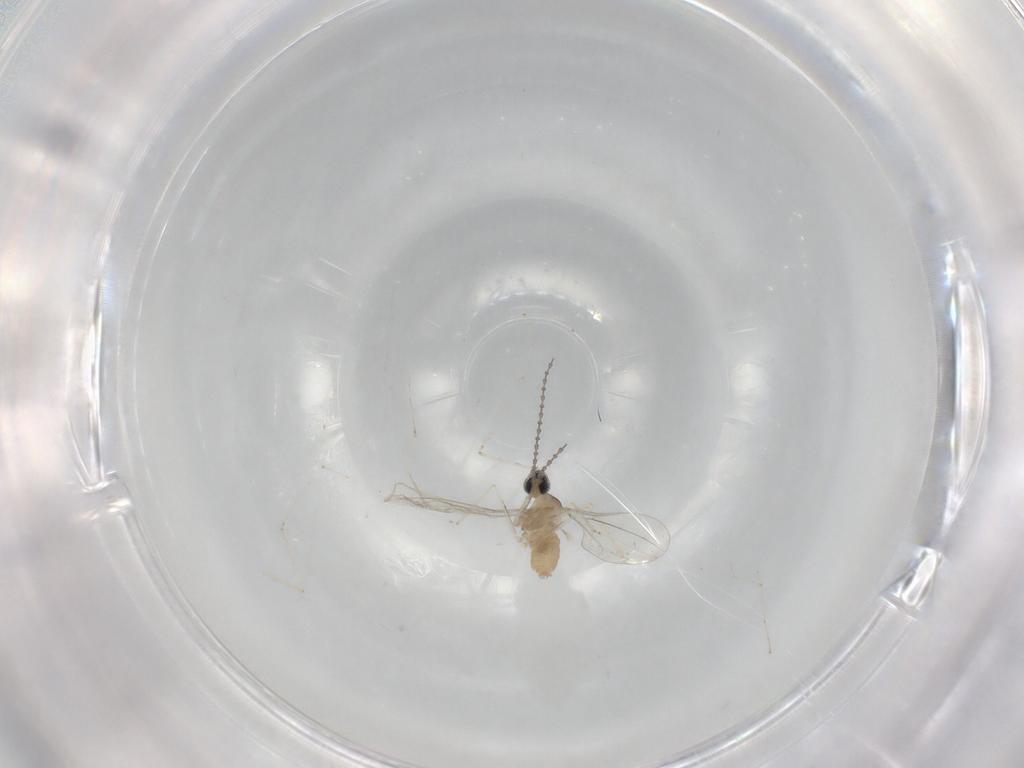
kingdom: Animalia
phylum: Arthropoda
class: Insecta
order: Diptera
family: Cecidomyiidae
